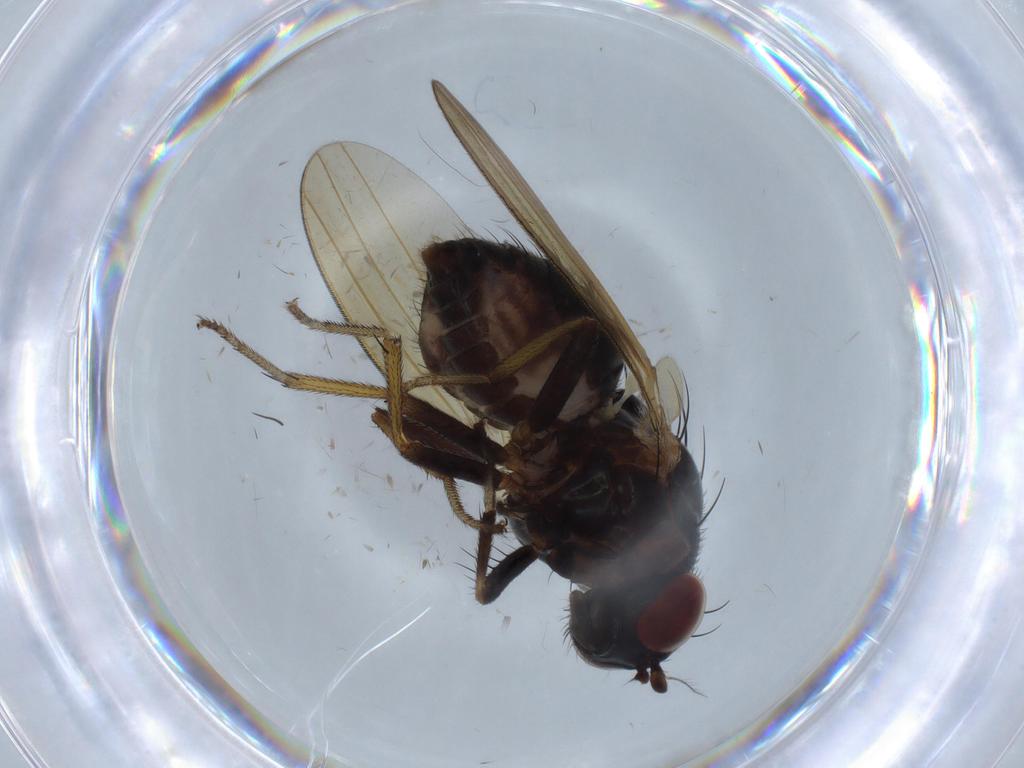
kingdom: Animalia
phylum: Arthropoda
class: Insecta
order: Diptera
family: Lauxaniidae
